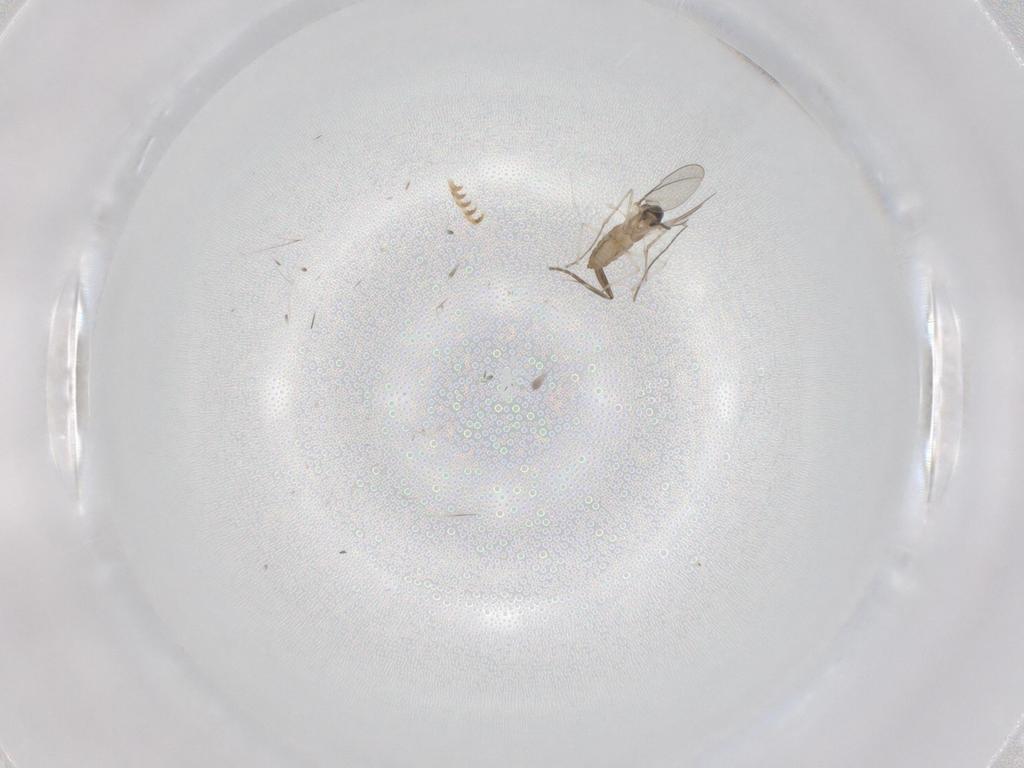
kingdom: Animalia
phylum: Arthropoda
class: Insecta
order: Diptera
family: Cecidomyiidae
